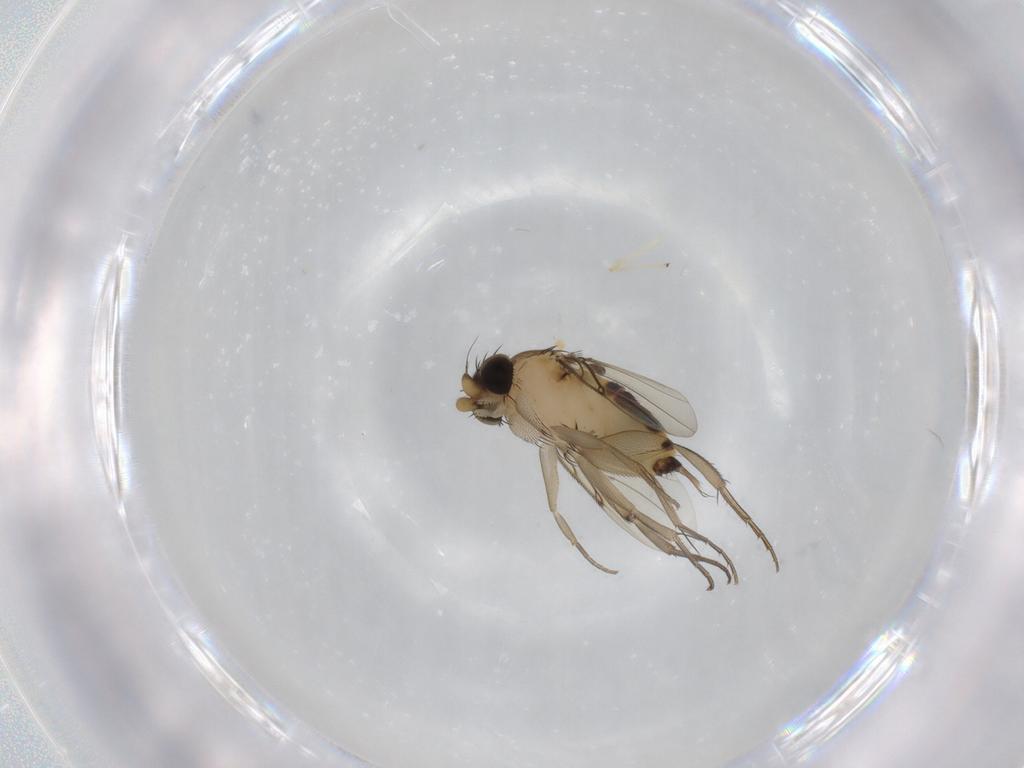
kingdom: Animalia
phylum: Arthropoda
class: Insecta
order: Diptera
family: Phoridae
